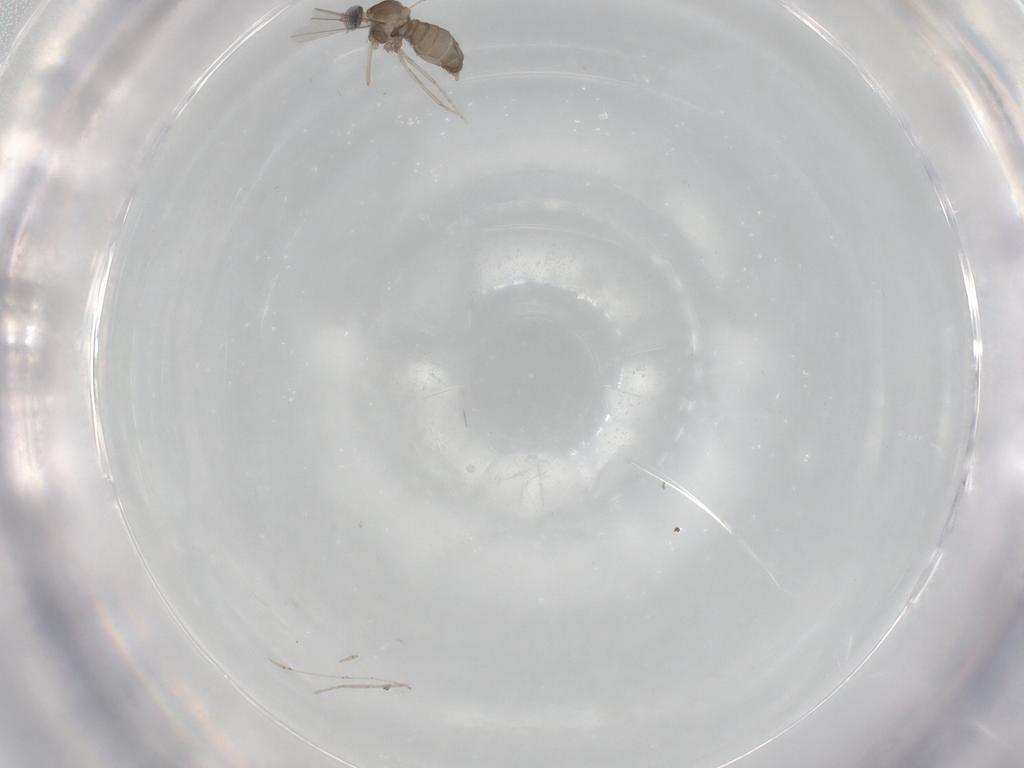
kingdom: Animalia
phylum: Arthropoda
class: Insecta
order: Diptera
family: Cecidomyiidae
